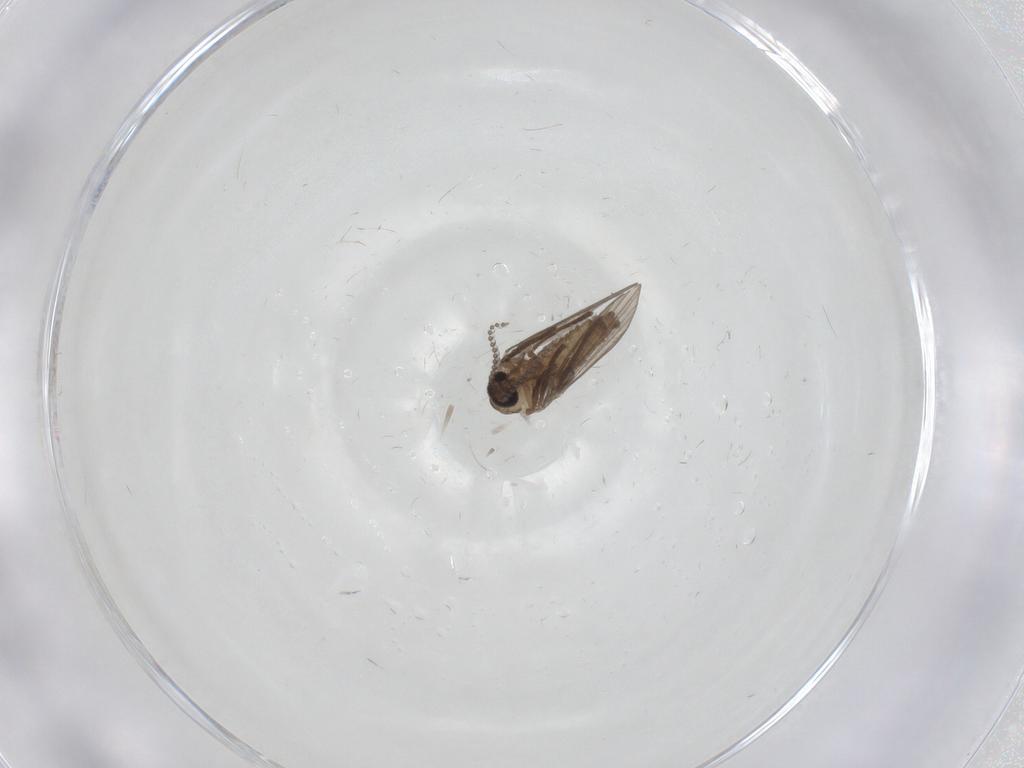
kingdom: Animalia
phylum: Arthropoda
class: Insecta
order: Diptera
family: Psychodidae
